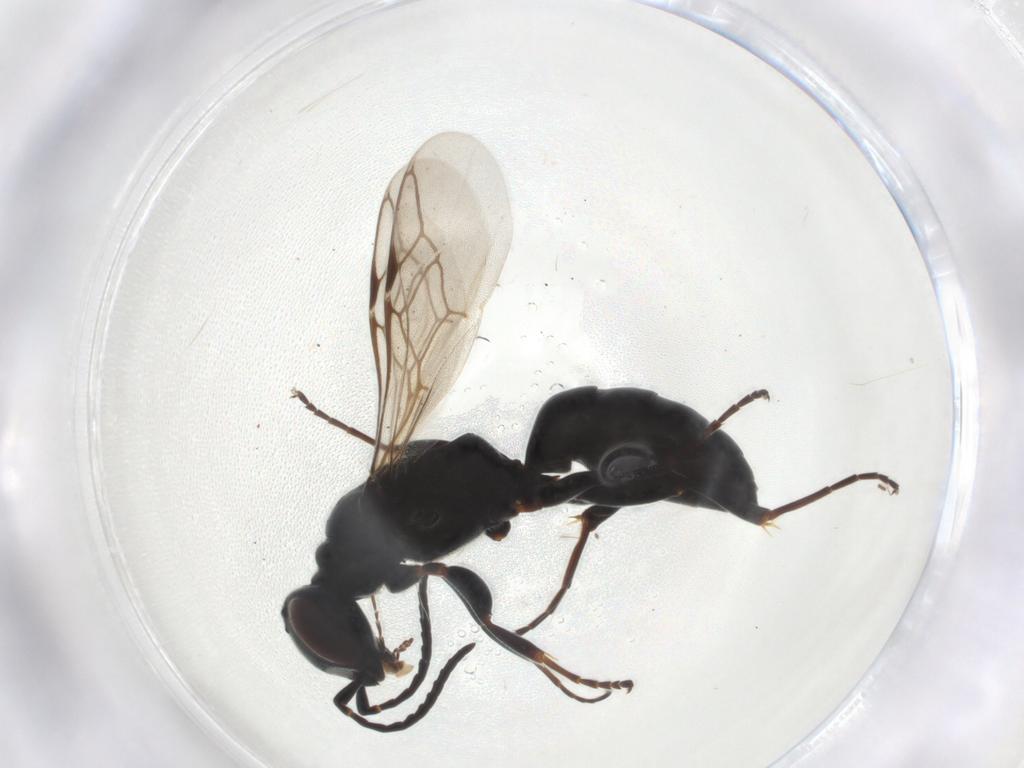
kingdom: Animalia
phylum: Arthropoda
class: Insecta
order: Hymenoptera
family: Crabronidae
